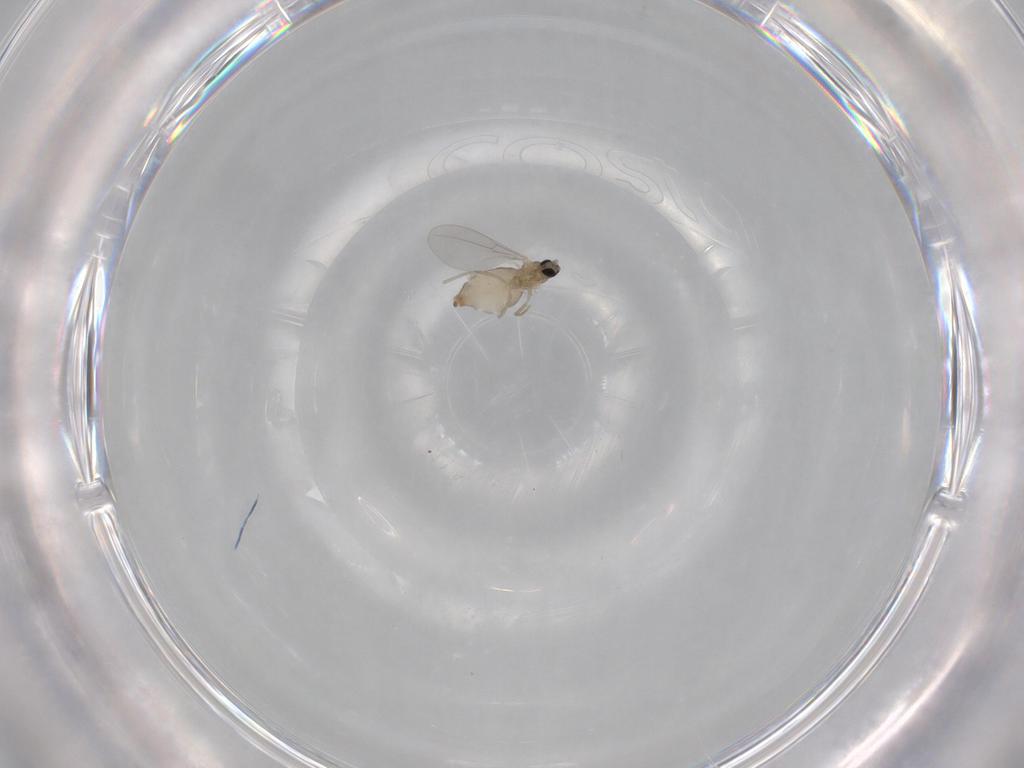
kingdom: Animalia
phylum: Arthropoda
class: Insecta
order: Diptera
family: Cecidomyiidae
